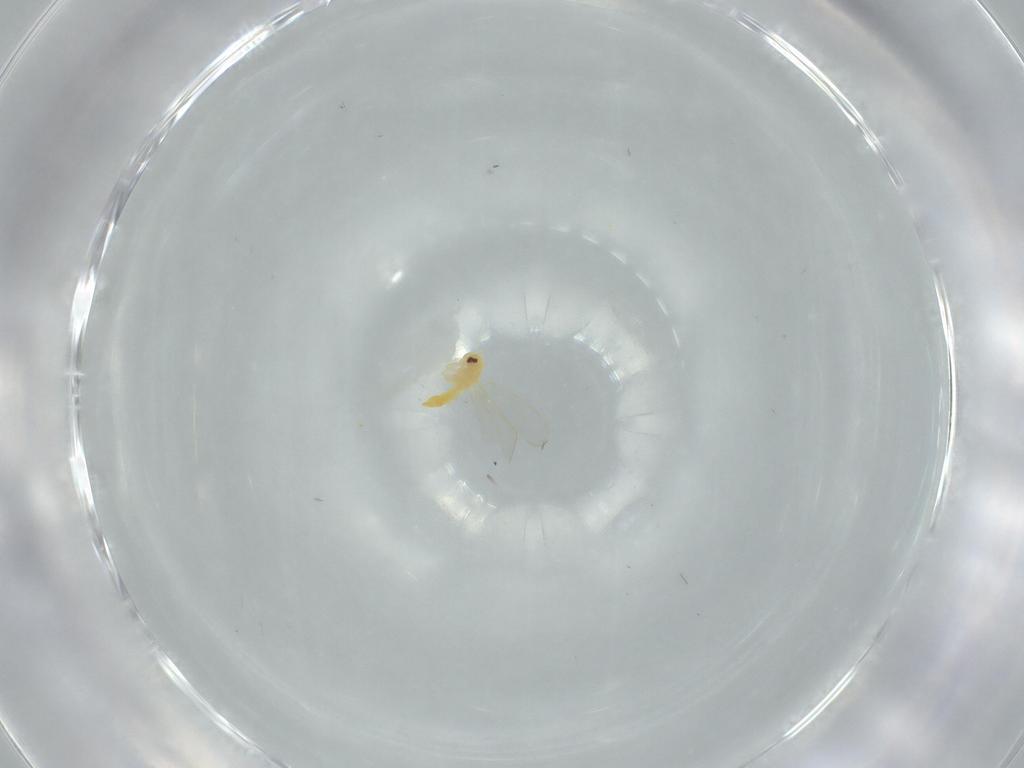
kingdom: Animalia
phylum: Arthropoda
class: Insecta
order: Hemiptera
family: Aleyrodidae
